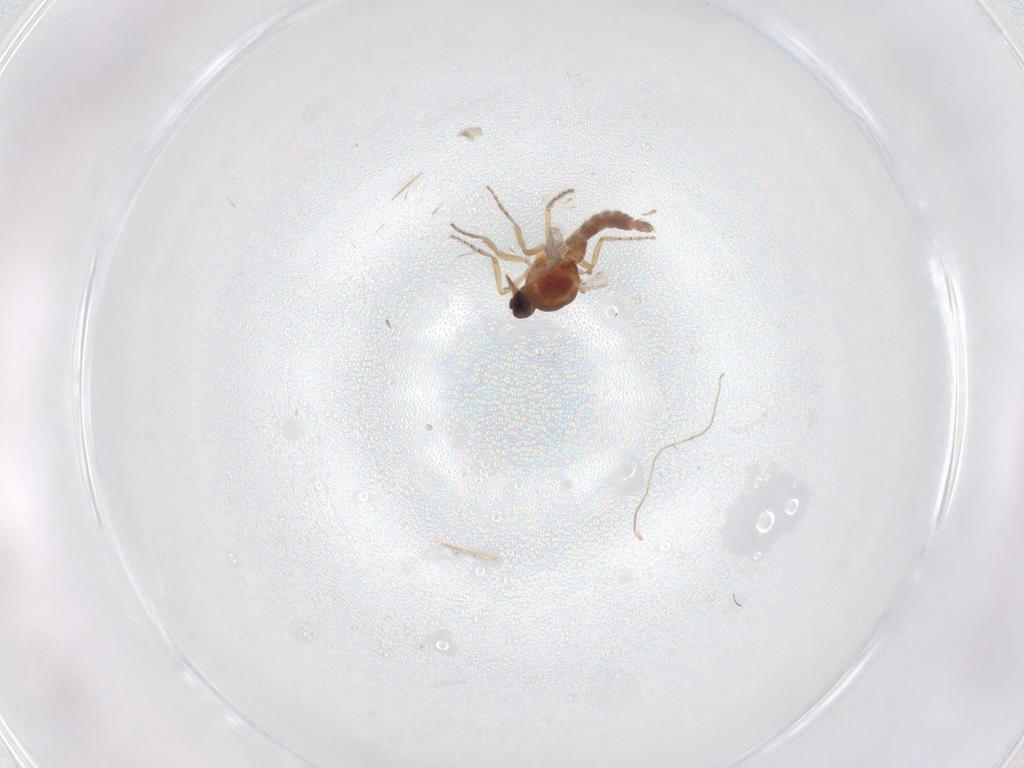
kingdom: Animalia
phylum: Arthropoda
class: Insecta
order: Diptera
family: Ceratopogonidae
